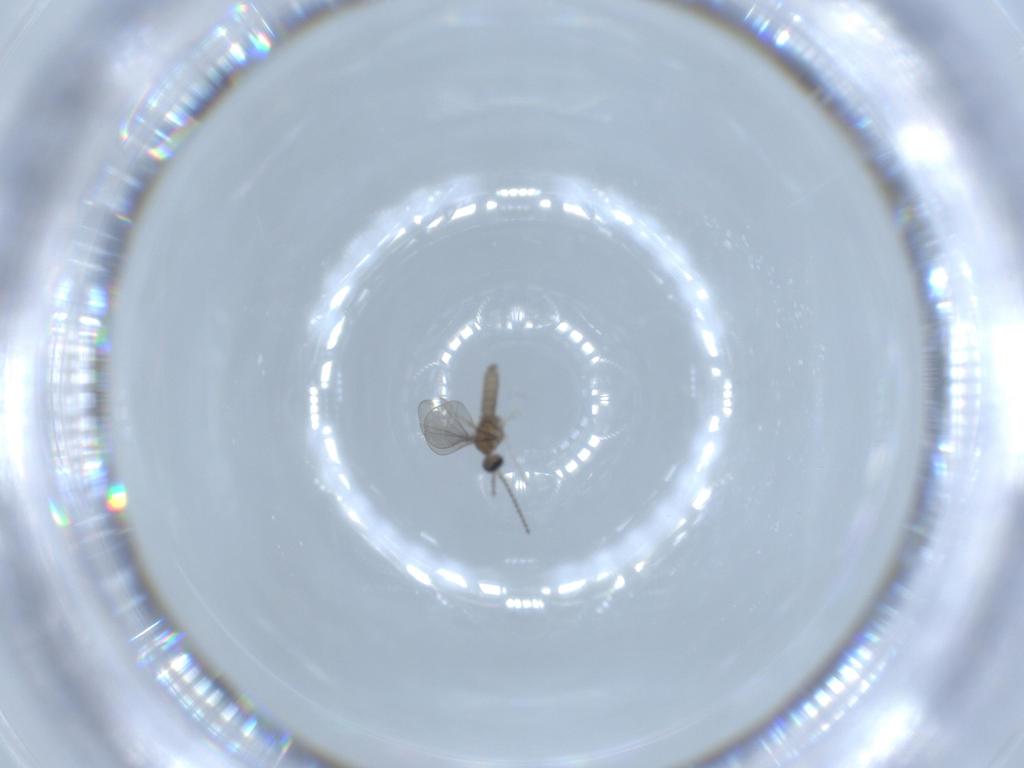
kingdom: Animalia
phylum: Arthropoda
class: Insecta
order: Diptera
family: Cecidomyiidae
